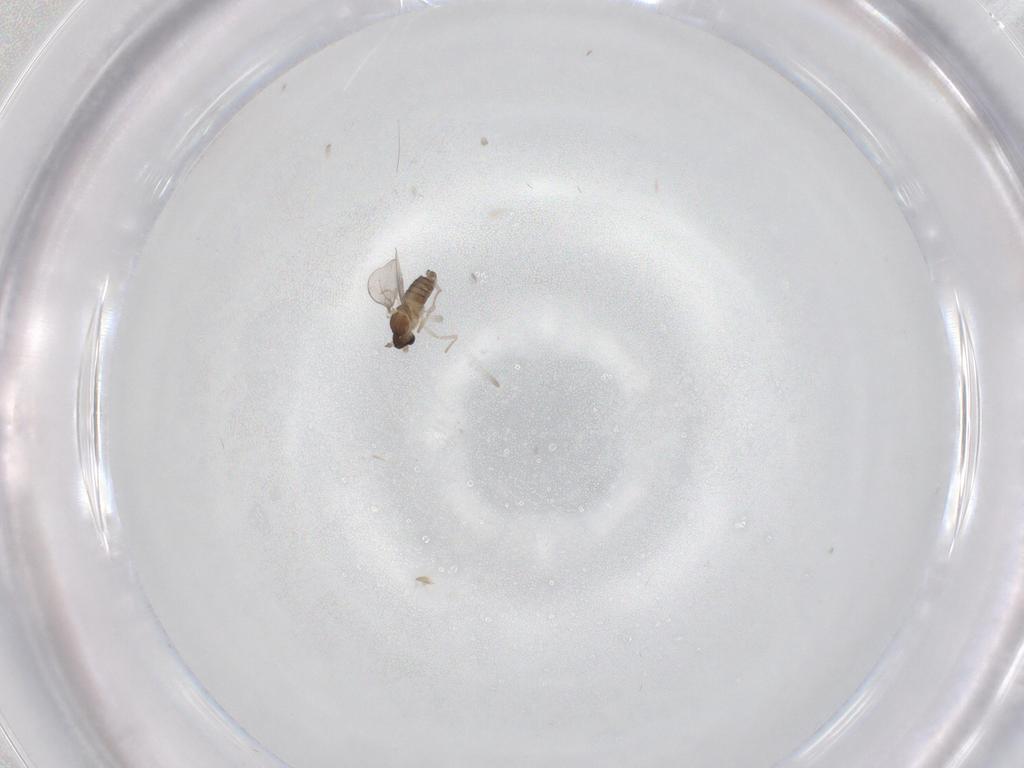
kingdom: Animalia
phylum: Arthropoda
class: Insecta
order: Diptera
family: Cecidomyiidae
